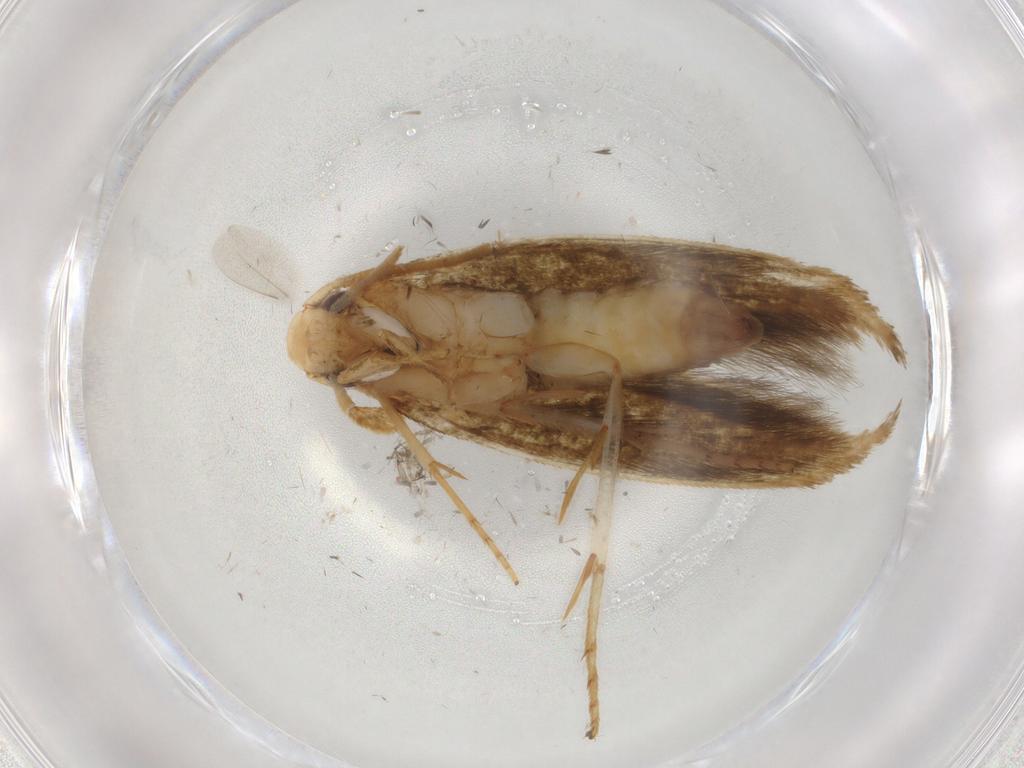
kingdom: Animalia
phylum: Arthropoda
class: Insecta
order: Lepidoptera
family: Tineidae
